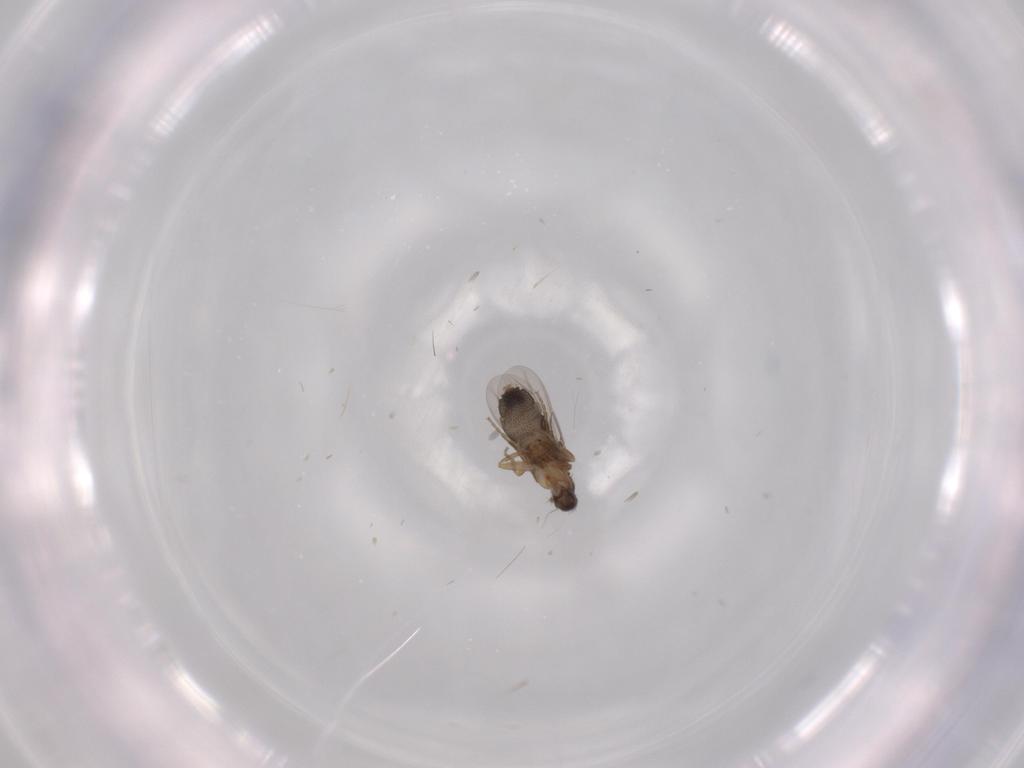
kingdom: Animalia
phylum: Arthropoda
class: Insecta
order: Diptera
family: Phoridae
